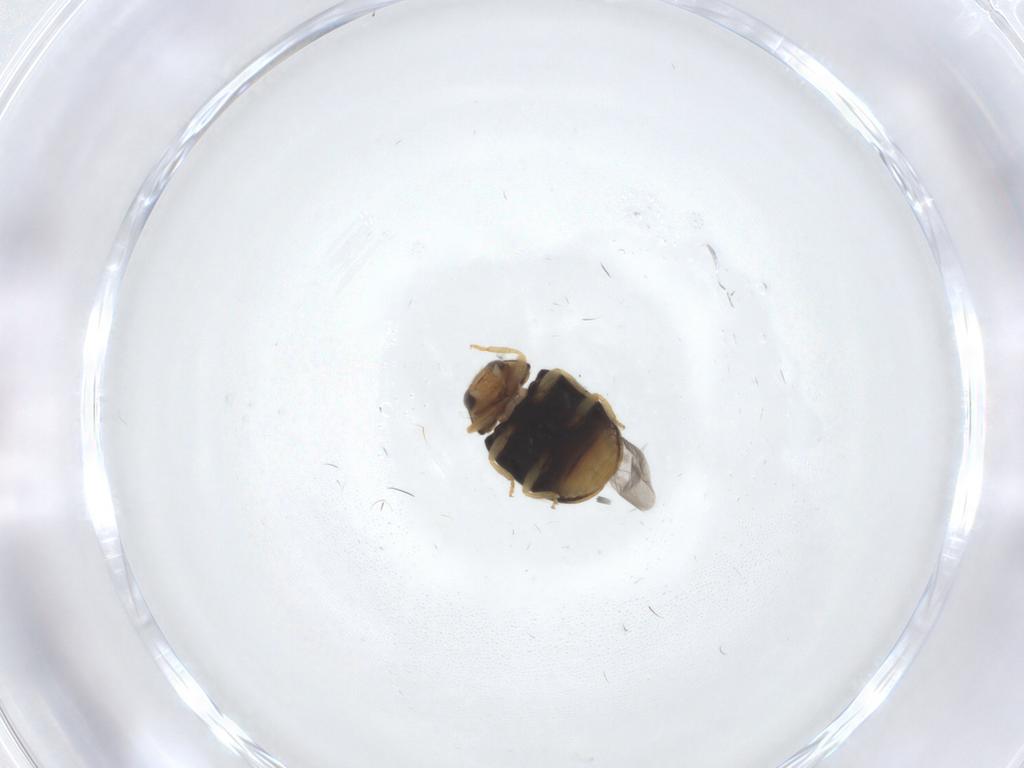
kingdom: Animalia
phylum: Arthropoda
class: Insecta
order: Coleoptera
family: Coccinellidae
